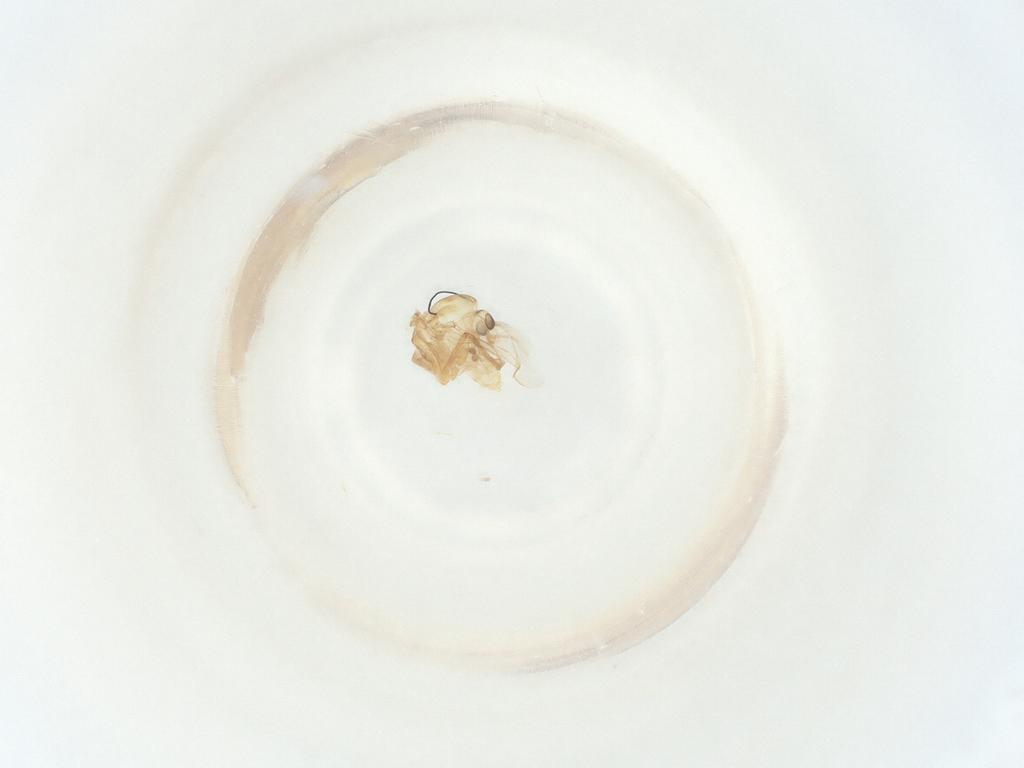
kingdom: Animalia
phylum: Arthropoda
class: Insecta
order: Diptera
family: Chironomidae
